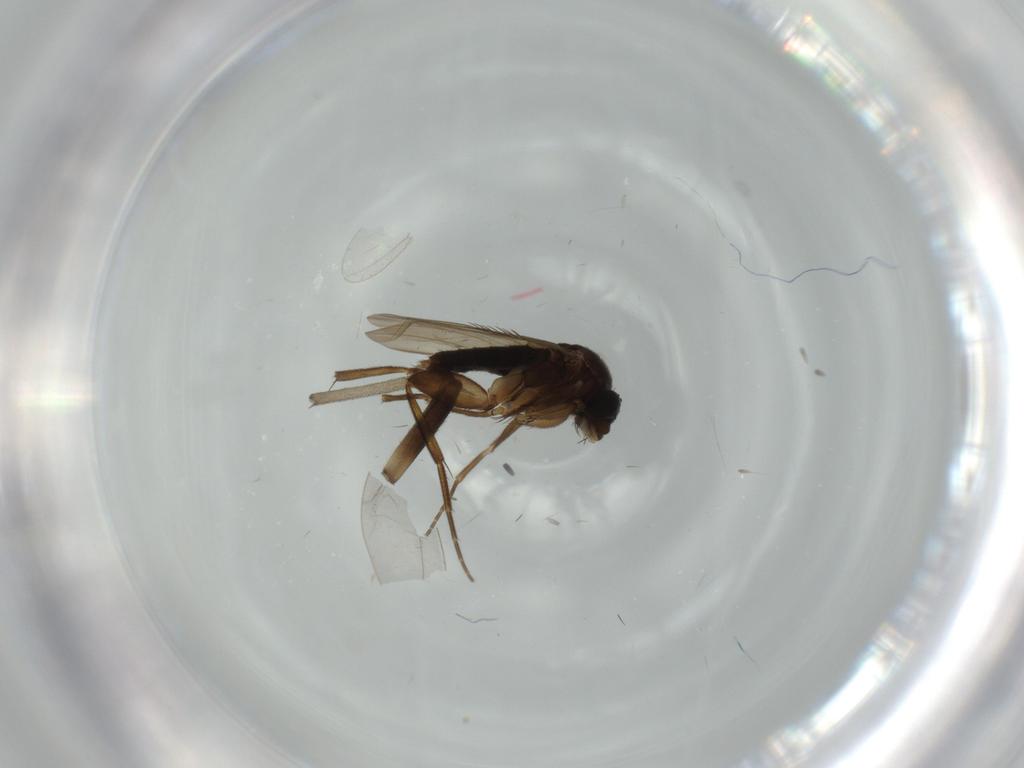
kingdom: Animalia
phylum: Arthropoda
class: Insecta
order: Diptera
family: Phoridae
